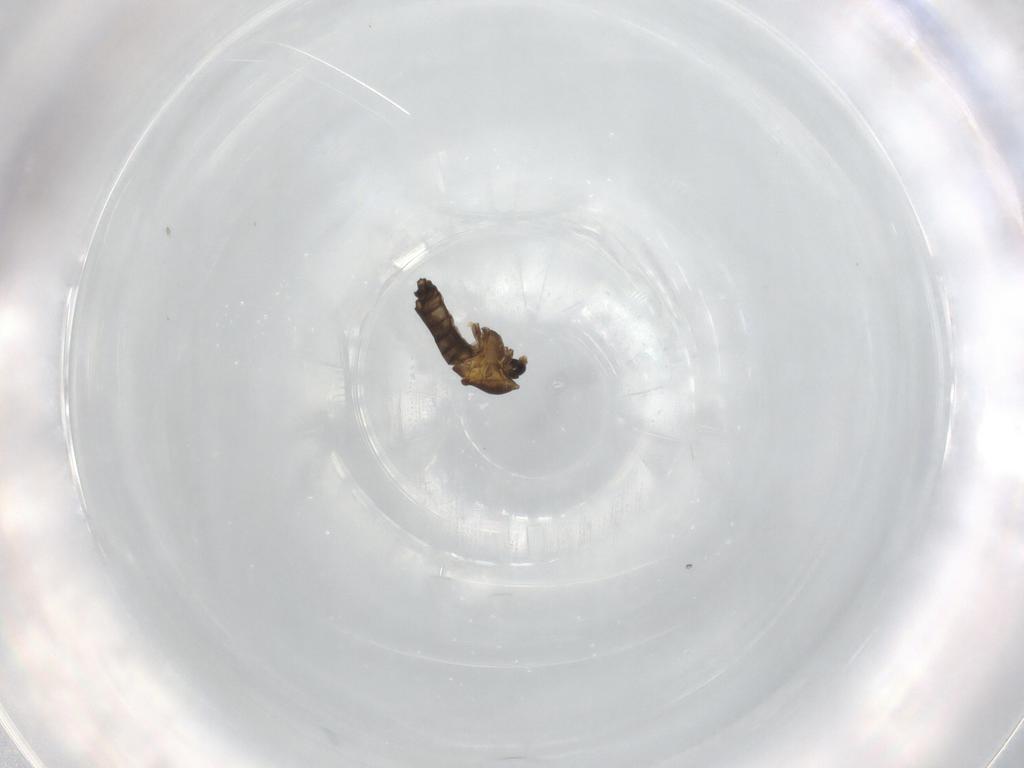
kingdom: Animalia
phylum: Arthropoda
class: Insecta
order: Diptera
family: Chironomidae
